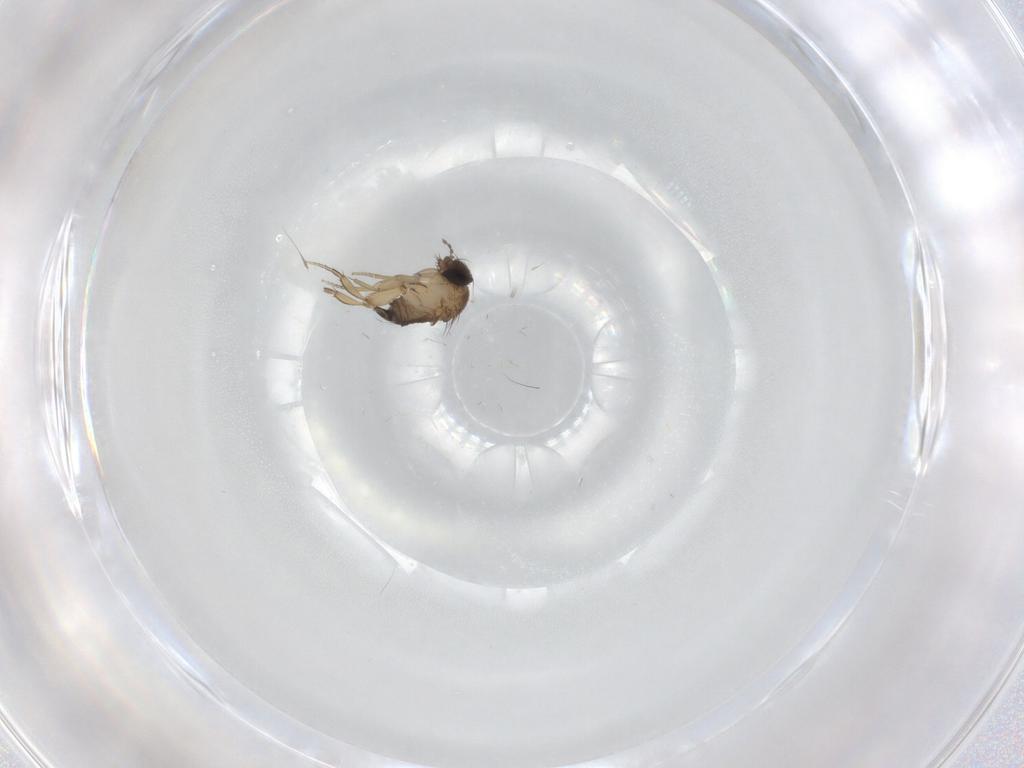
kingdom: Animalia
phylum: Arthropoda
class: Insecta
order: Diptera
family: Phoridae
